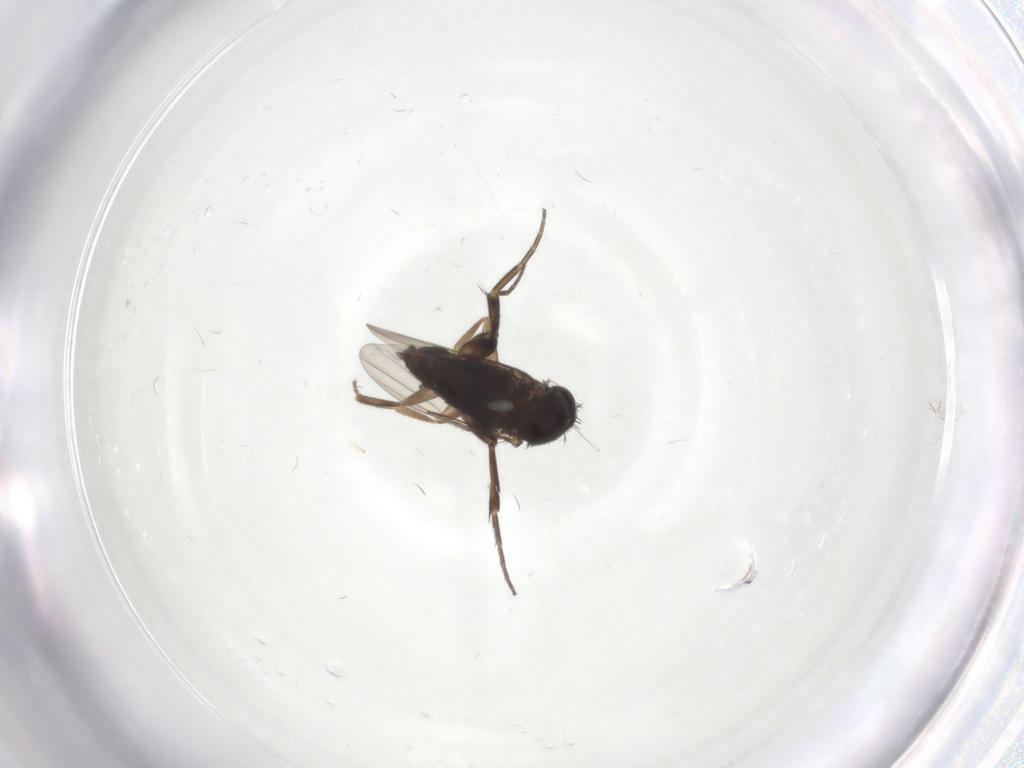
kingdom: Animalia
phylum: Arthropoda
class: Insecta
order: Diptera
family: Phoridae
